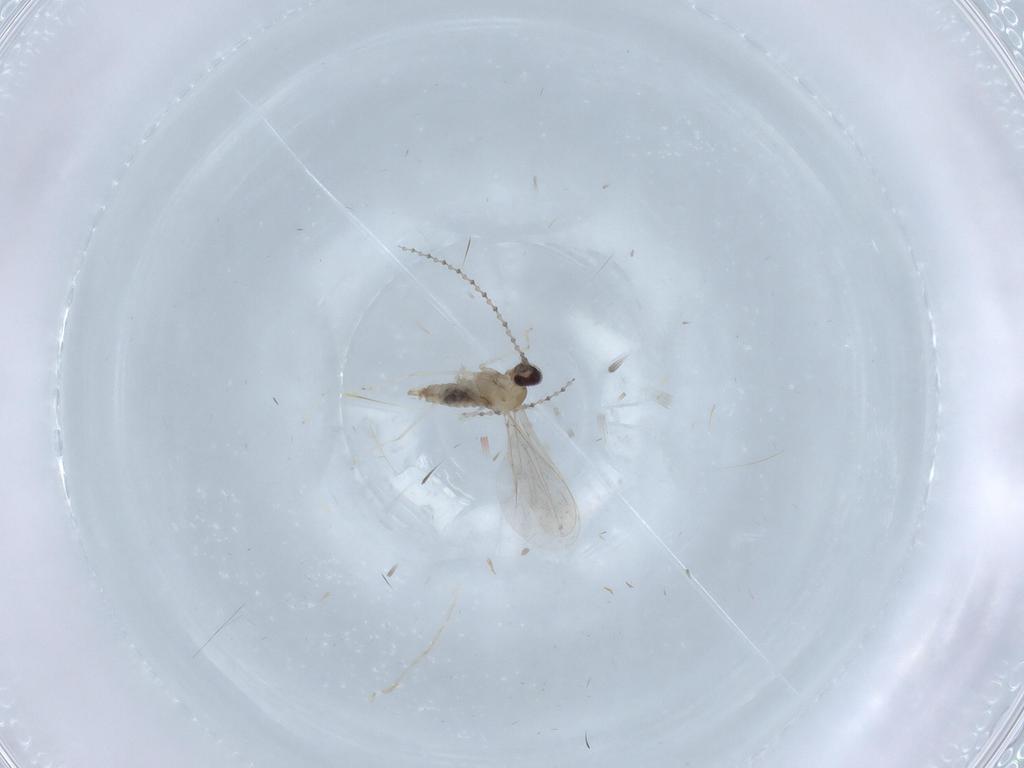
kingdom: Animalia
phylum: Arthropoda
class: Insecta
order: Diptera
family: Cecidomyiidae
